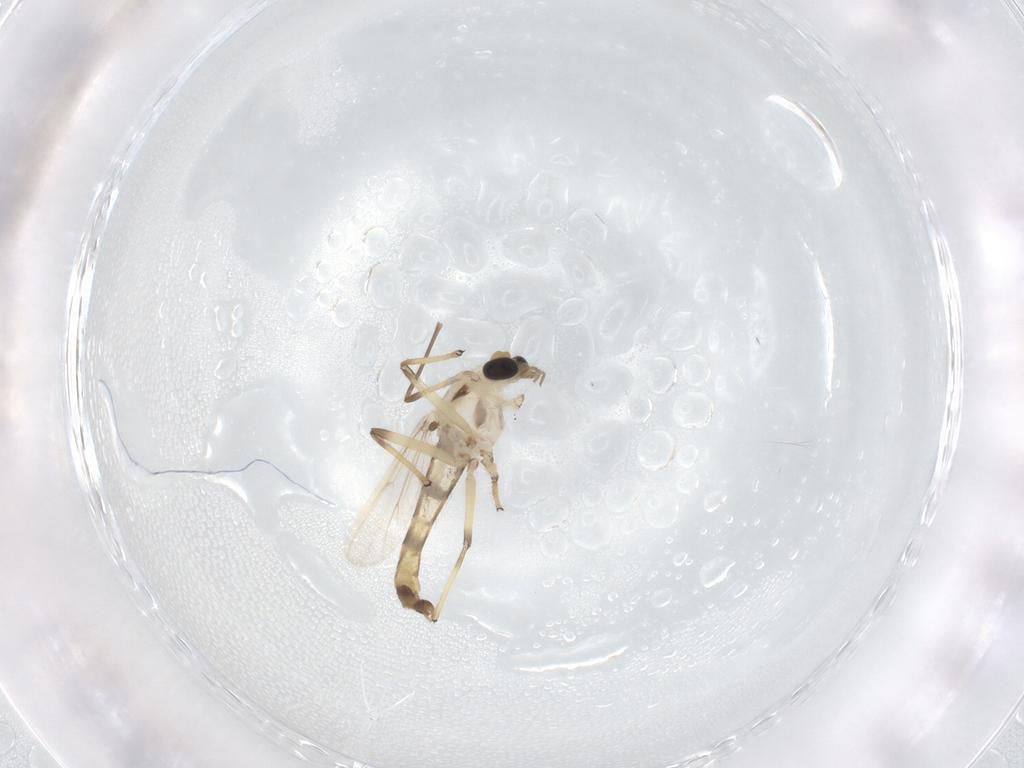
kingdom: Animalia
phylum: Arthropoda
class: Insecta
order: Diptera
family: Chironomidae
